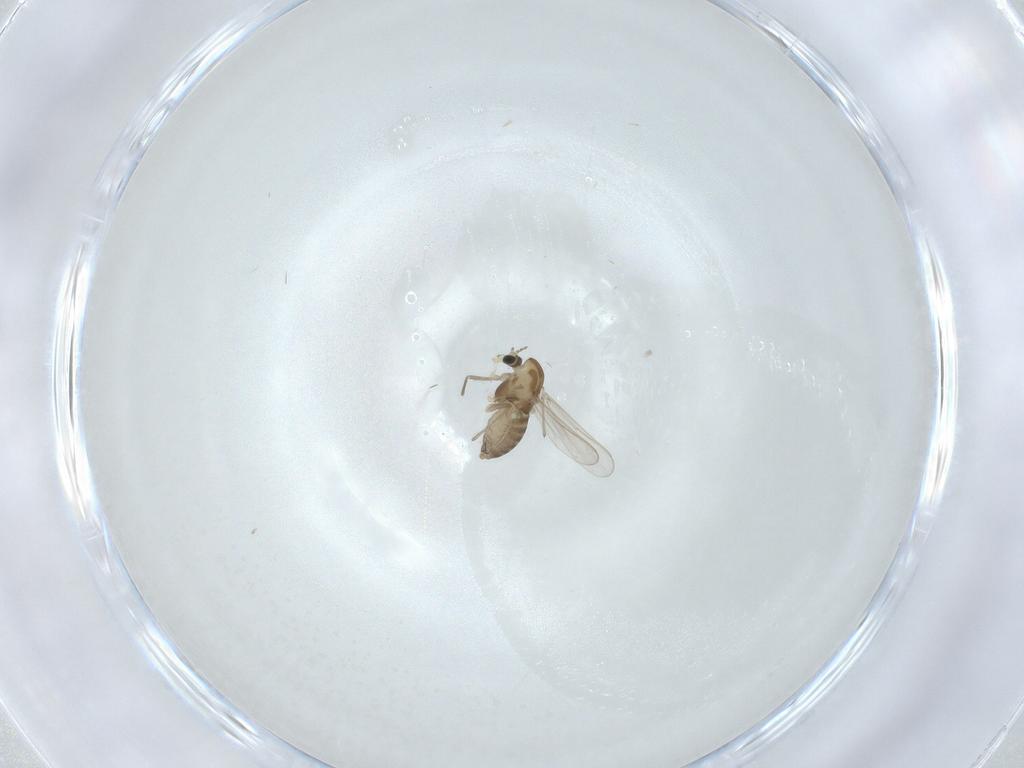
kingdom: Animalia
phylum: Arthropoda
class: Insecta
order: Diptera
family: Chironomidae
